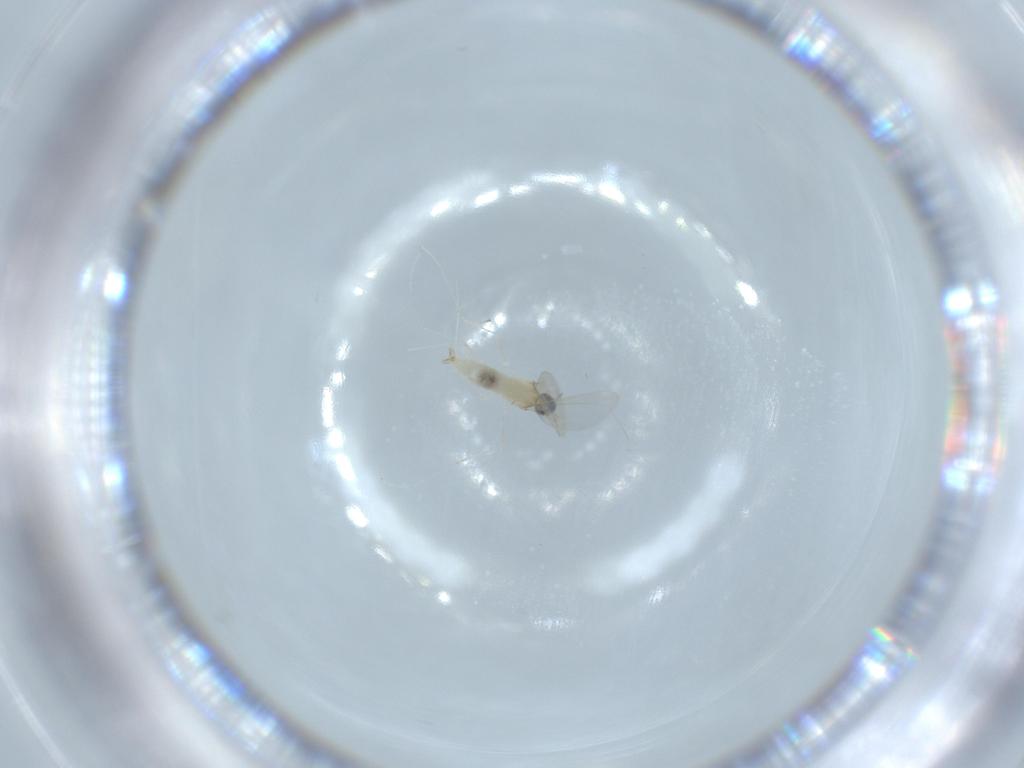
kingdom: Animalia
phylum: Arthropoda
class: Insecta
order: Diptera
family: Cecidomyiidae
